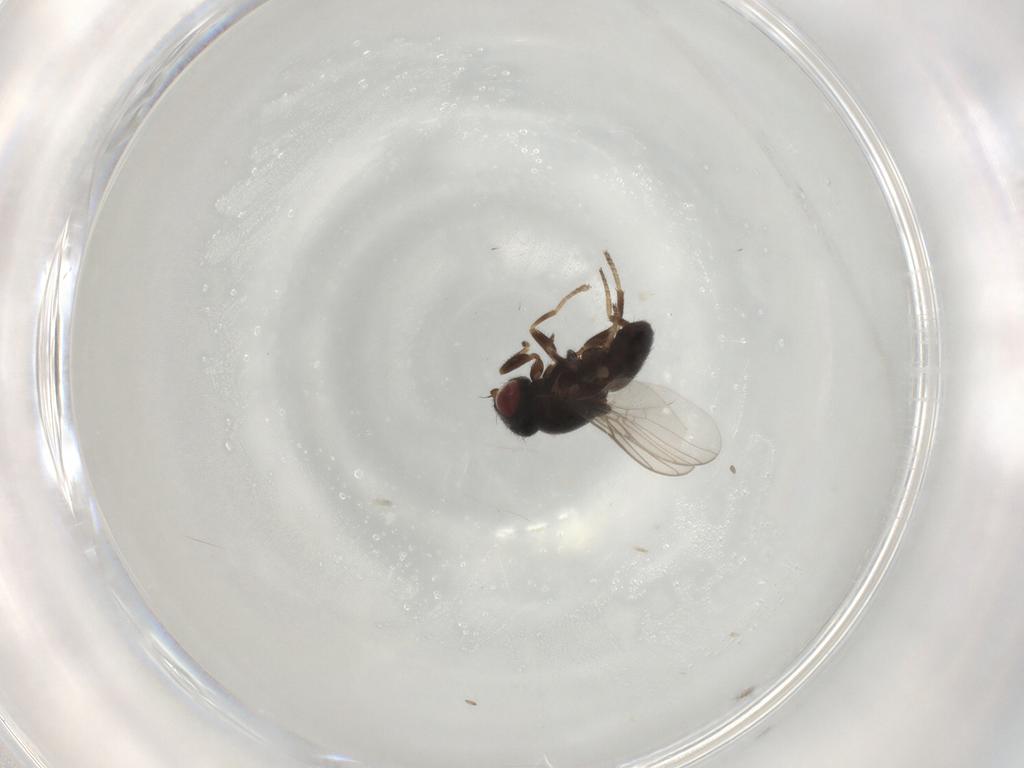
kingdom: Animalia
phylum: Arthropoda
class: Insecta
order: Diptera
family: Chloropidae
